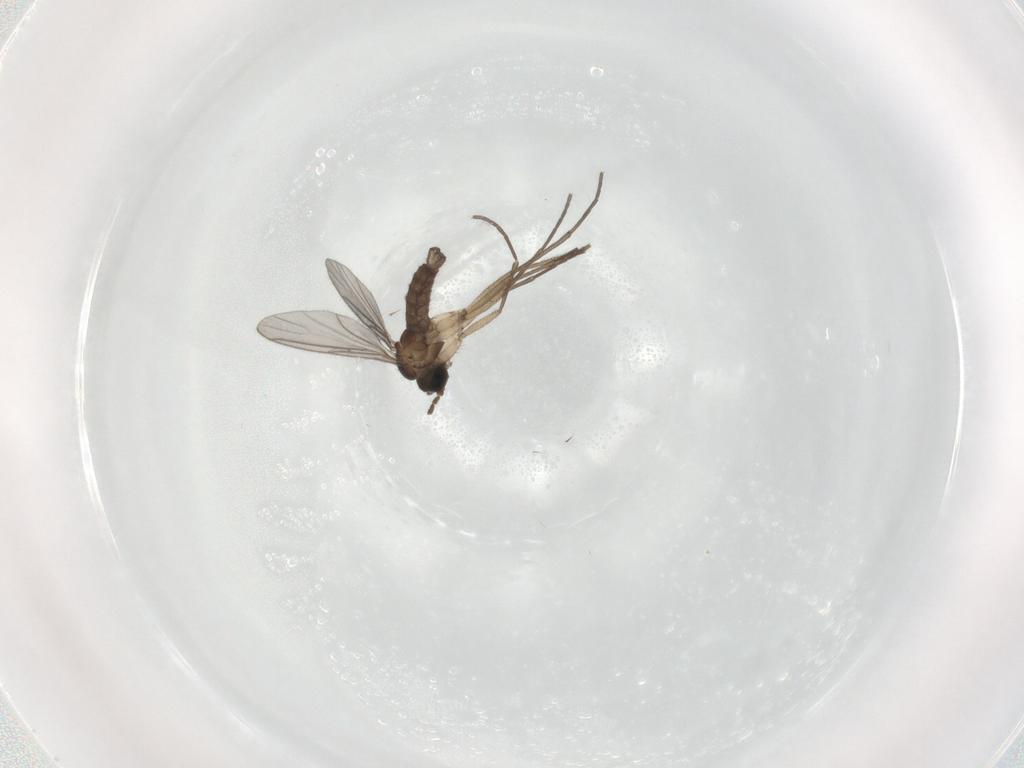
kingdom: Animalia
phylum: Arthropoda
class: Insecta
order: Diptera
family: Sciaridae
